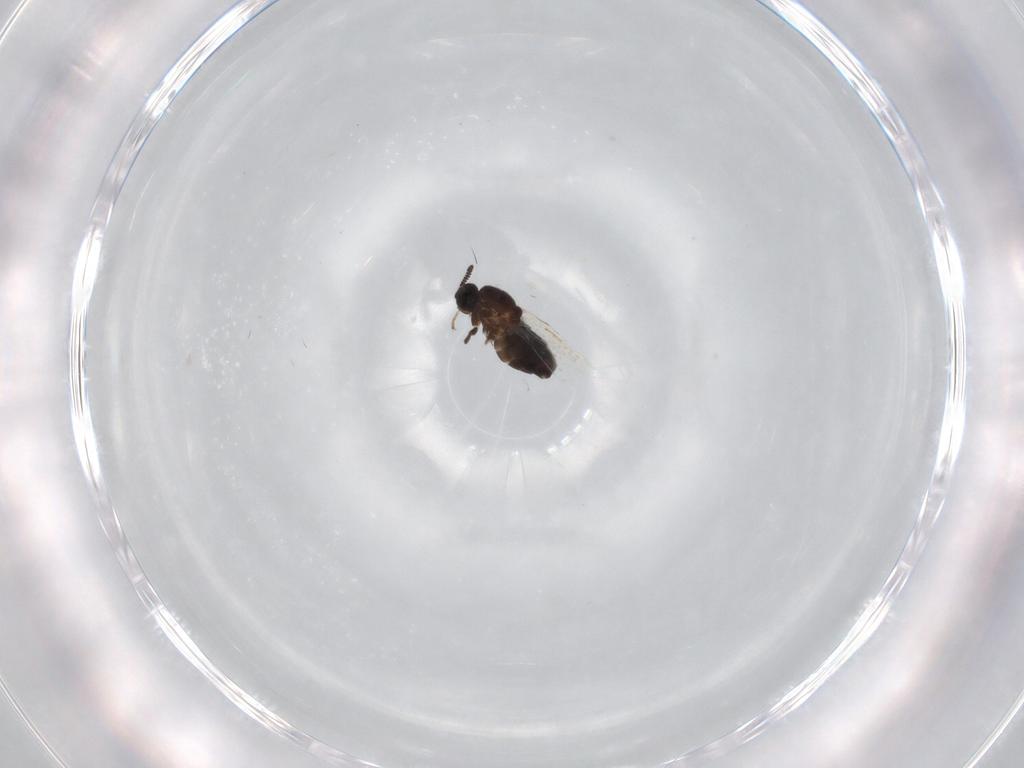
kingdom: Animalia
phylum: Arthropoda
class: Insecta
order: Diptera
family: Scatopsidae
